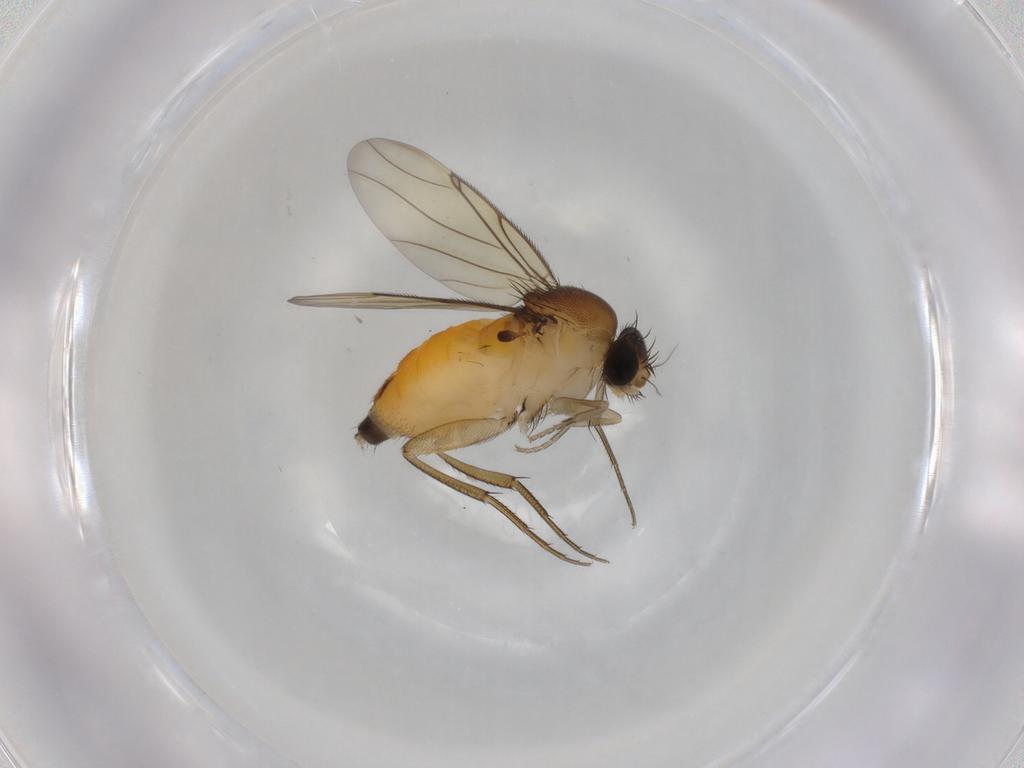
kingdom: Animalia
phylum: Arthropoda
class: Insecta
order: Diptera
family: Phoridae
